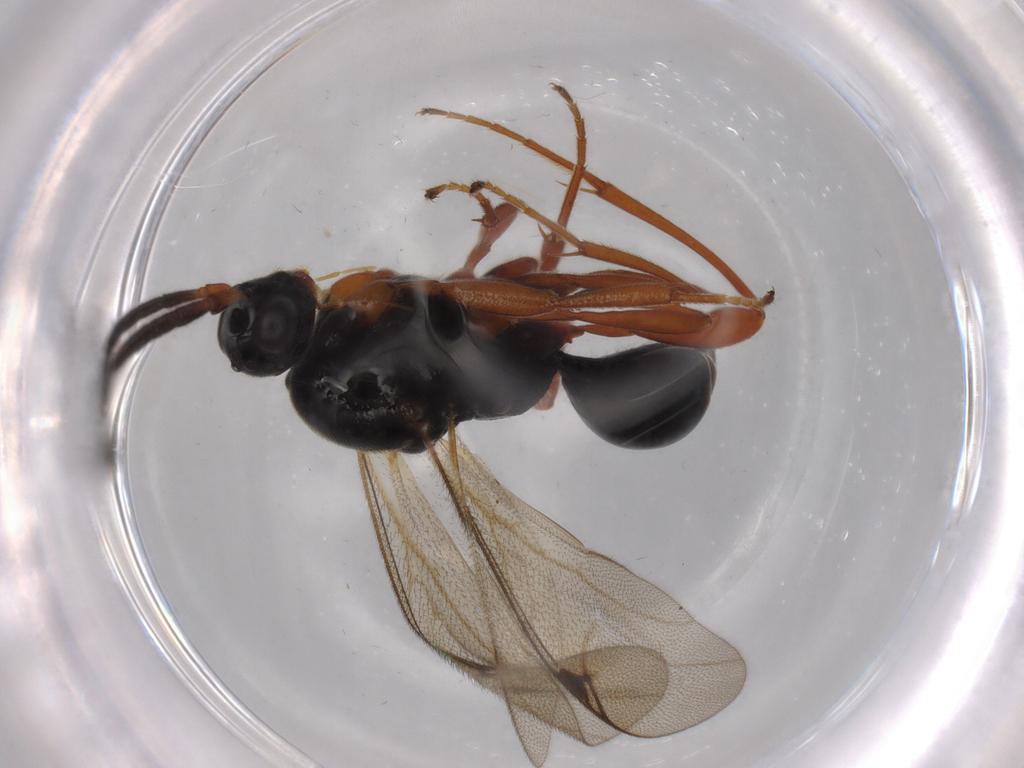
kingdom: Animalia
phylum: Arthropoda
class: Insecta
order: Hymenoptera
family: Proctotrupidae
